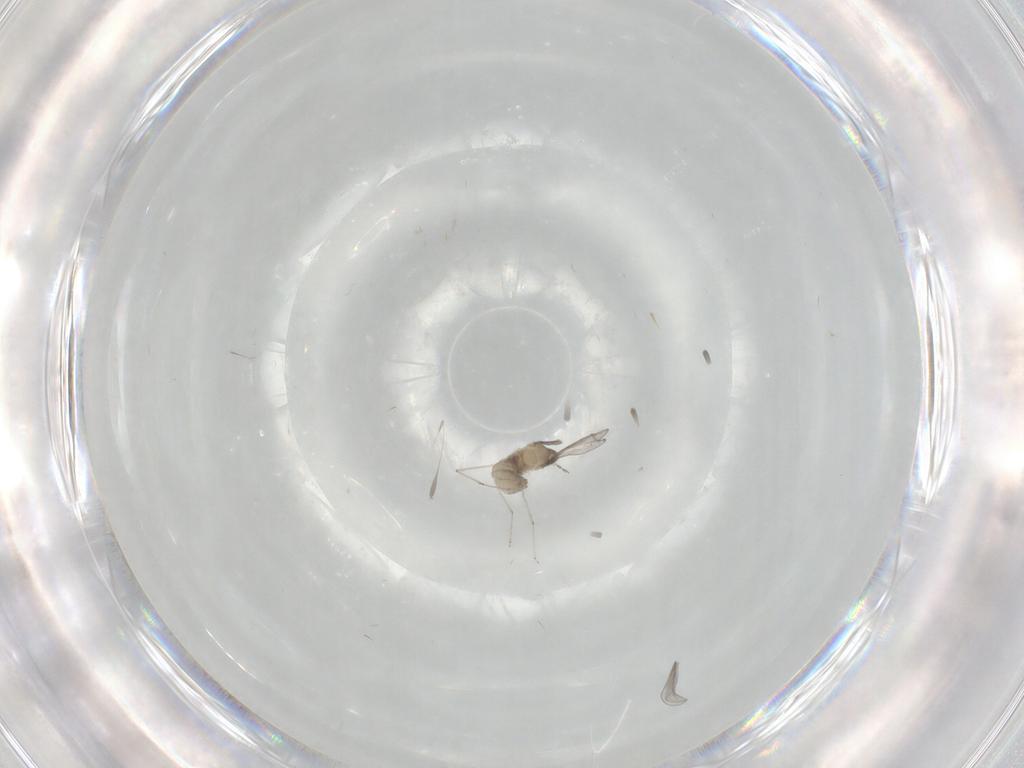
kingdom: Animalia
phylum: Arthropoda
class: Insecta
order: Diptera
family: Cecidomyiidae
